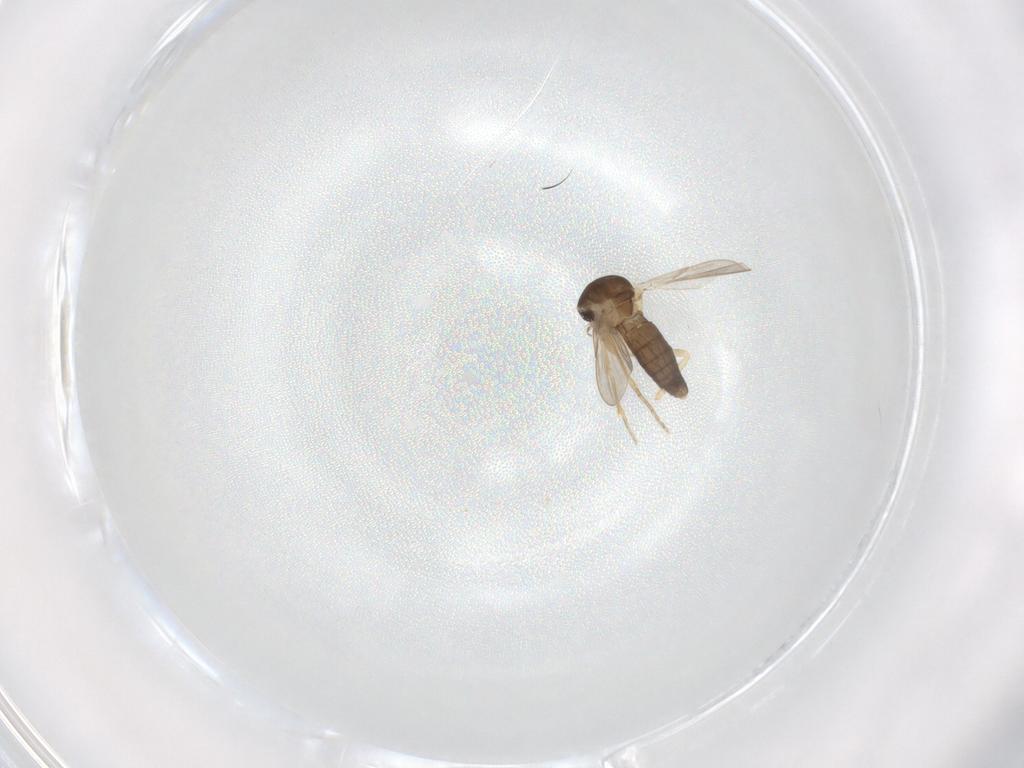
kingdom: Animalia
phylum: Arthropoda
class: Insecta
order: Diptera
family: Ceratopogonidae
